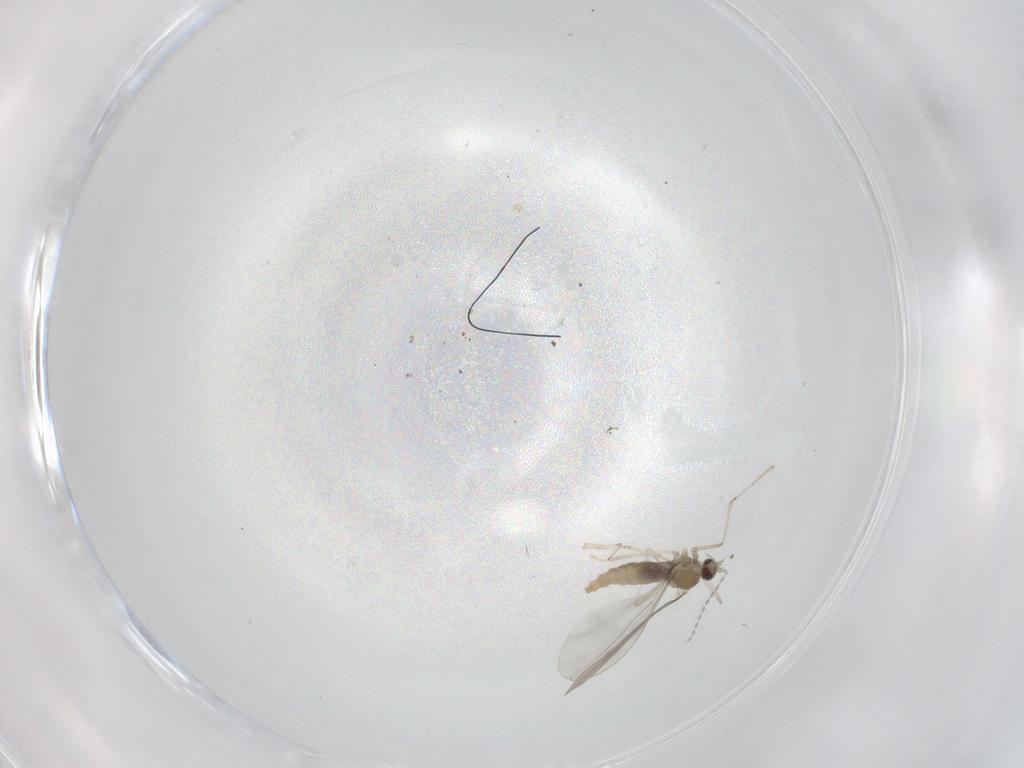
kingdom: Animalia
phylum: Arthropoda
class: Insecta
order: Diptera
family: Cecidomyiidae
